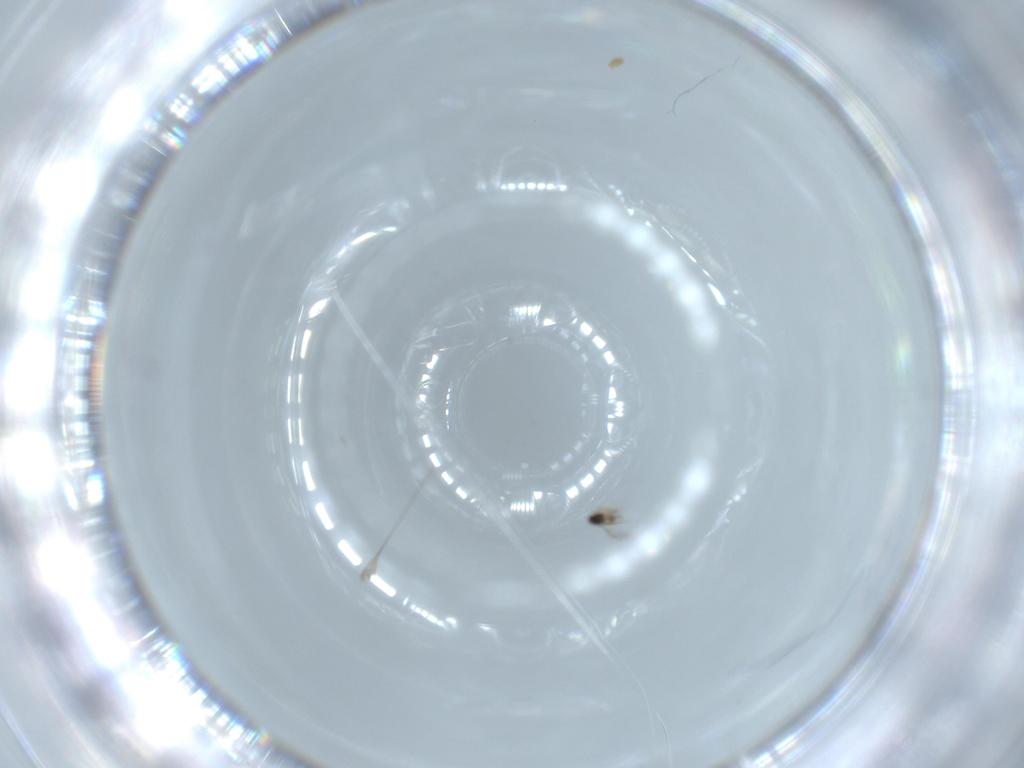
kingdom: Animalia
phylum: Arthropoda
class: Insecta
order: Hymenoptera
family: Mymaridae
